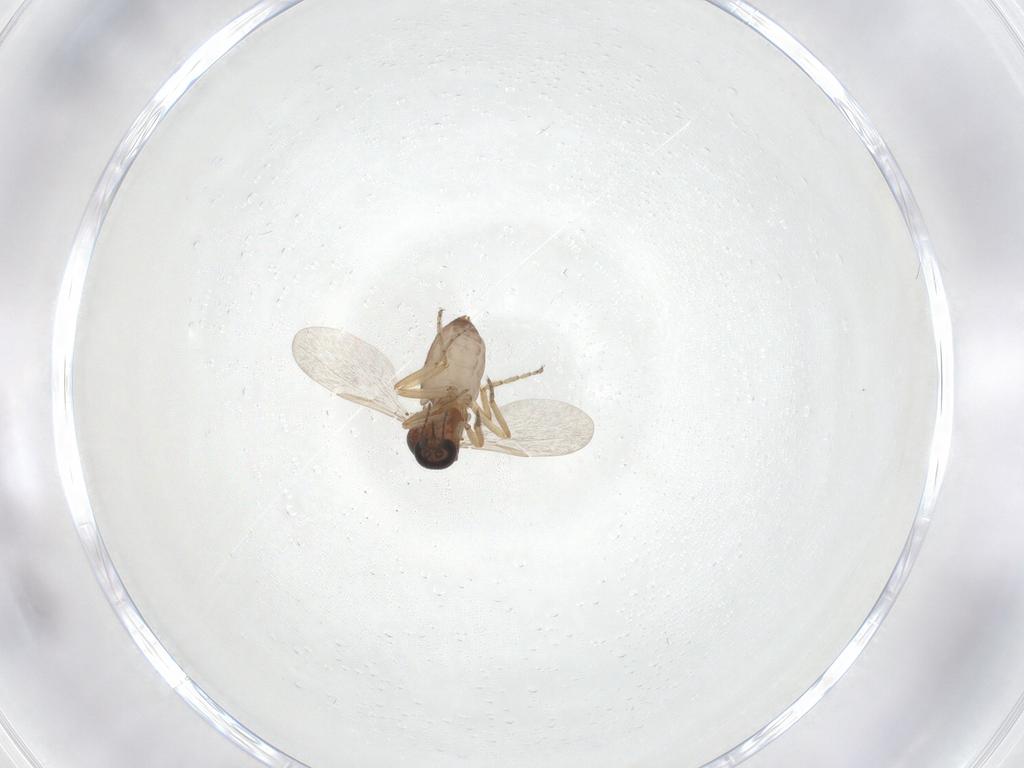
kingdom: Animalia
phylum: Arthropoda
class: Insecta
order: Diptera
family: Ceratopogonidae
